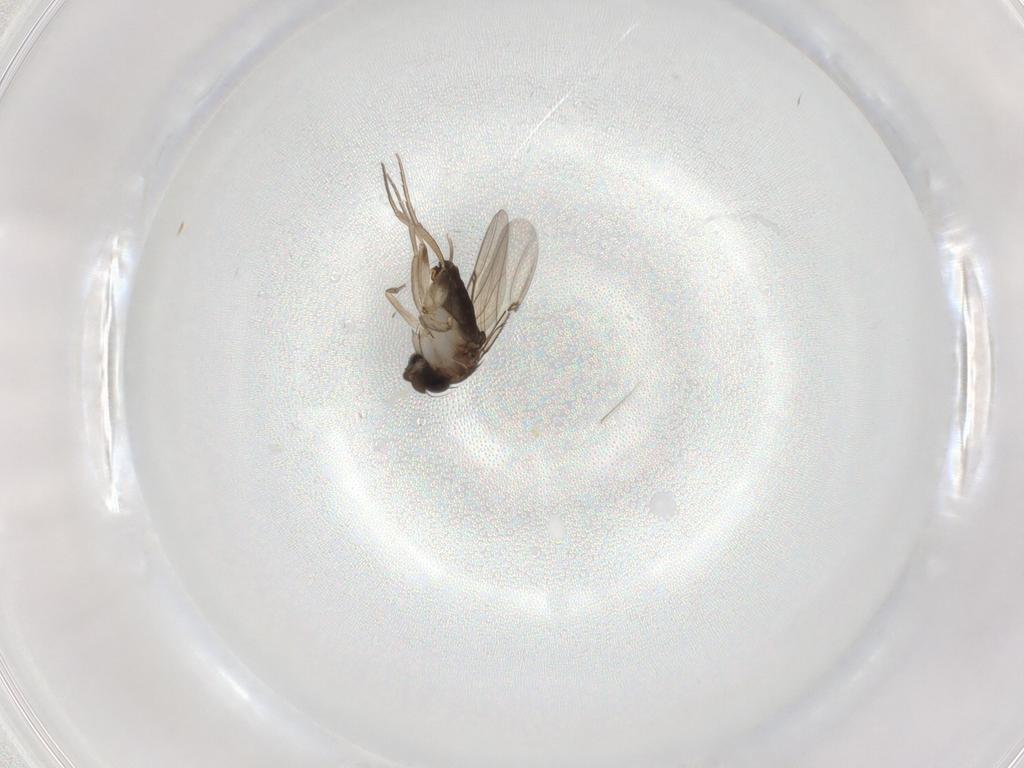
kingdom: Animalia
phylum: Arthropoda
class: Insecta
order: Diptera
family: Phoridae
